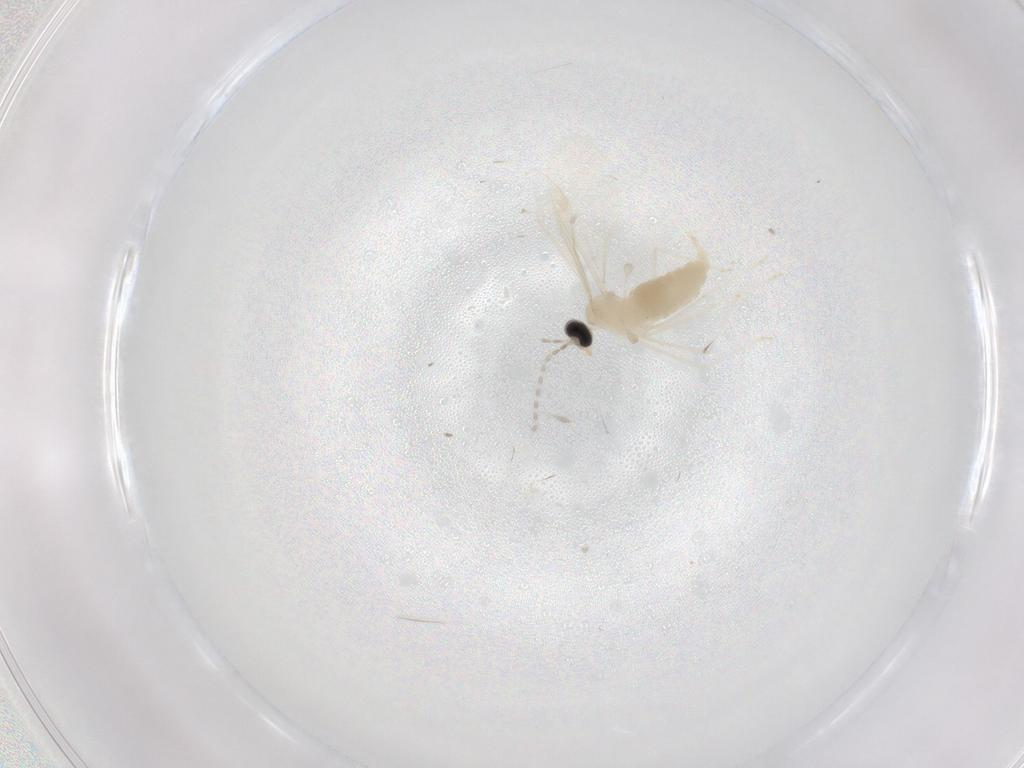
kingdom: Animalia
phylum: Arthropoda
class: Insecta
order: Diptera
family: Cecidomyiidae
